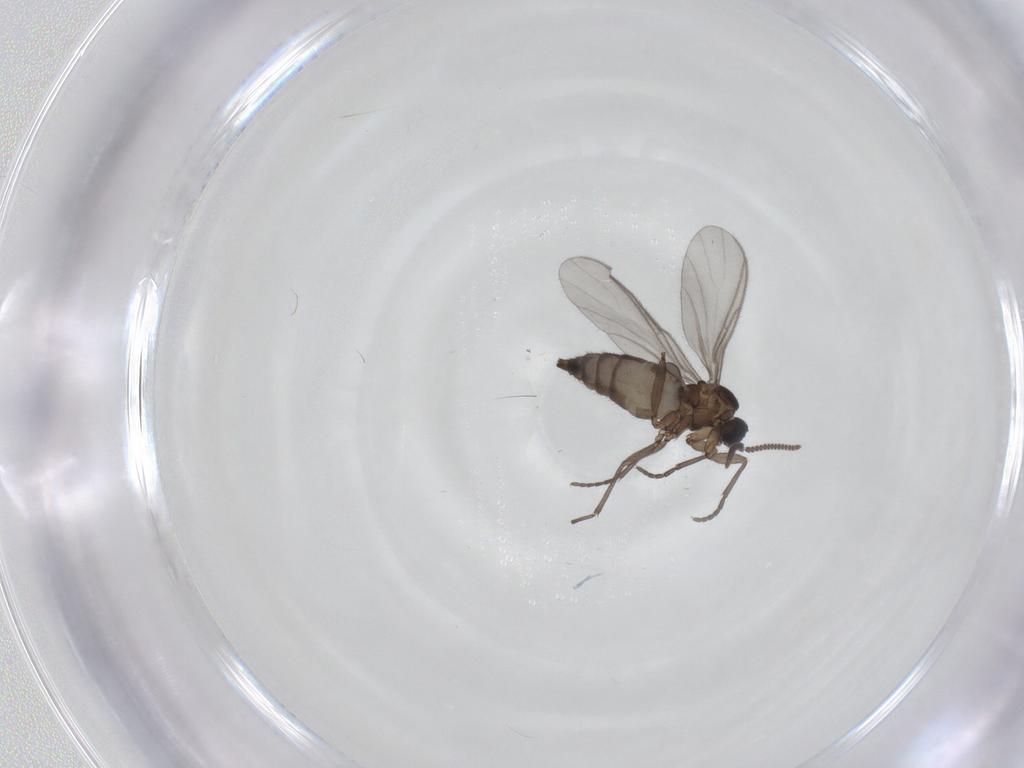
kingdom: Animalia
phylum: Arthropoda
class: Insecta
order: Diptera
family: Sciaridae
